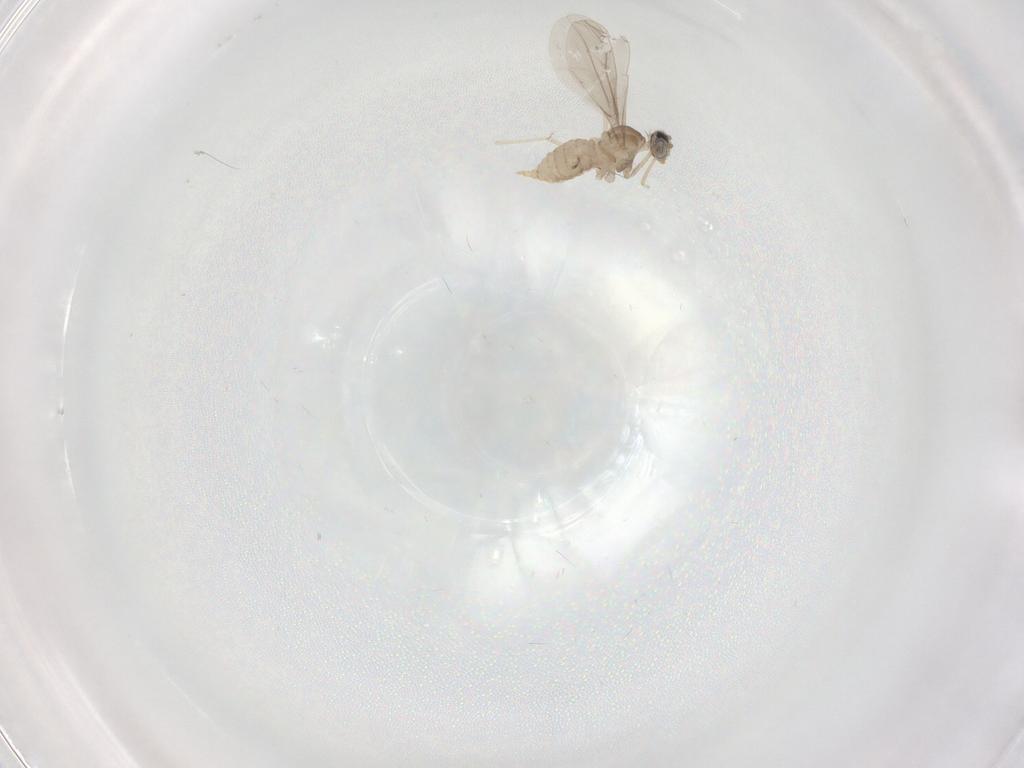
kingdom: Animalia
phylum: Arthropoda
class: Insecta
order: Diptera
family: Cecidomyiidae
